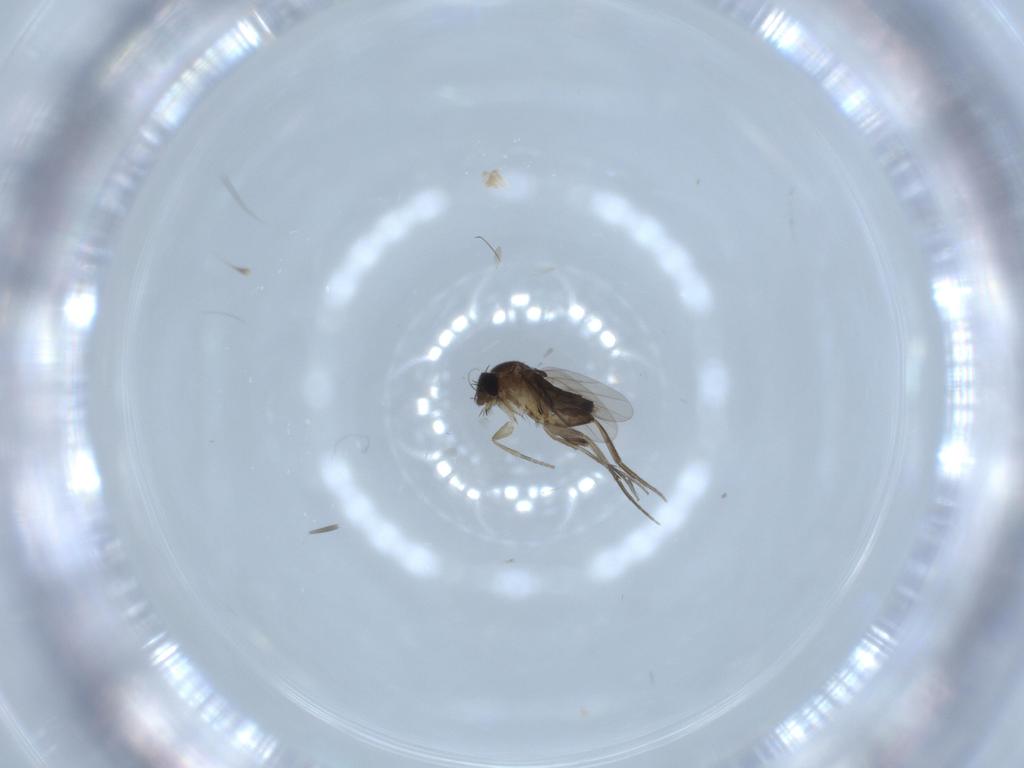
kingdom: Animalia
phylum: Arthropoda
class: Insecta
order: Diptera
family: Phoridae
